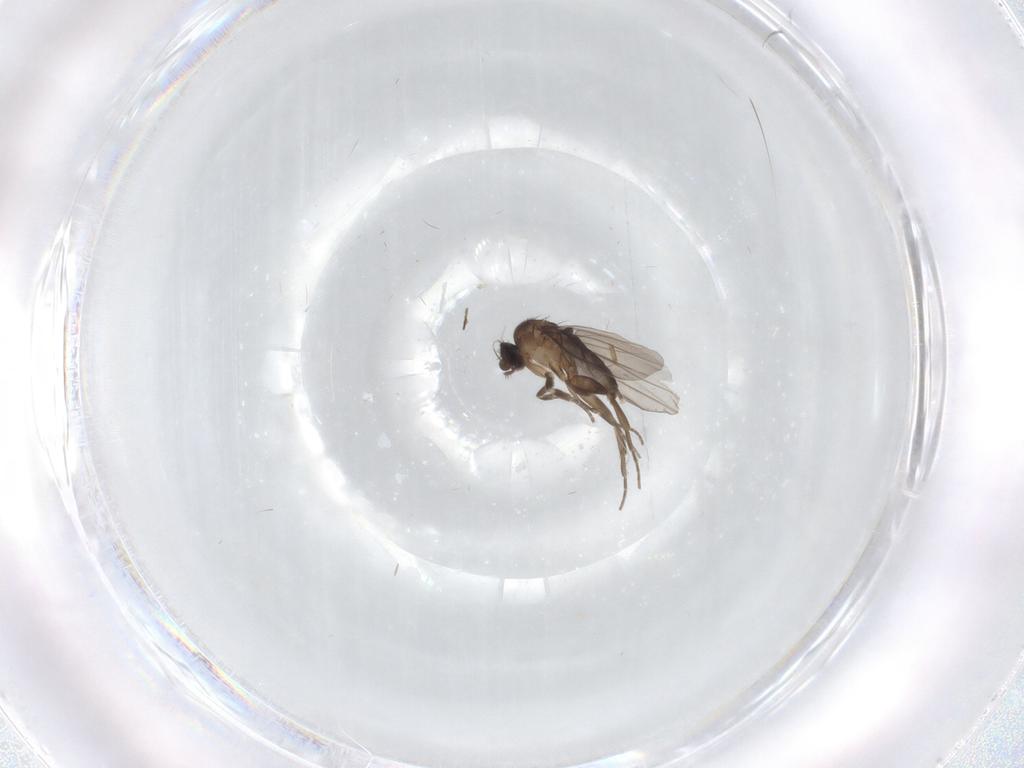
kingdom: Animalia
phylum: Arthropoda
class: Insecta
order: Diptera
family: Phoridae
